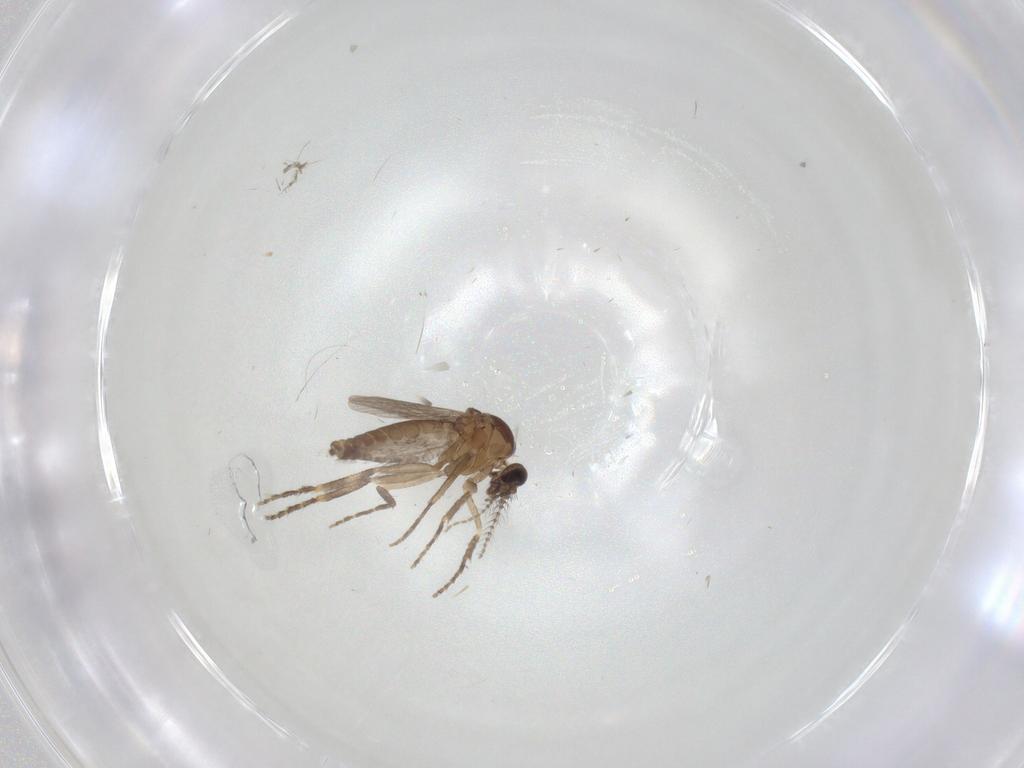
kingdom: Animalia
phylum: Arthropoda
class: Insecta
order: Diptera
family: Ceratopogonidae
